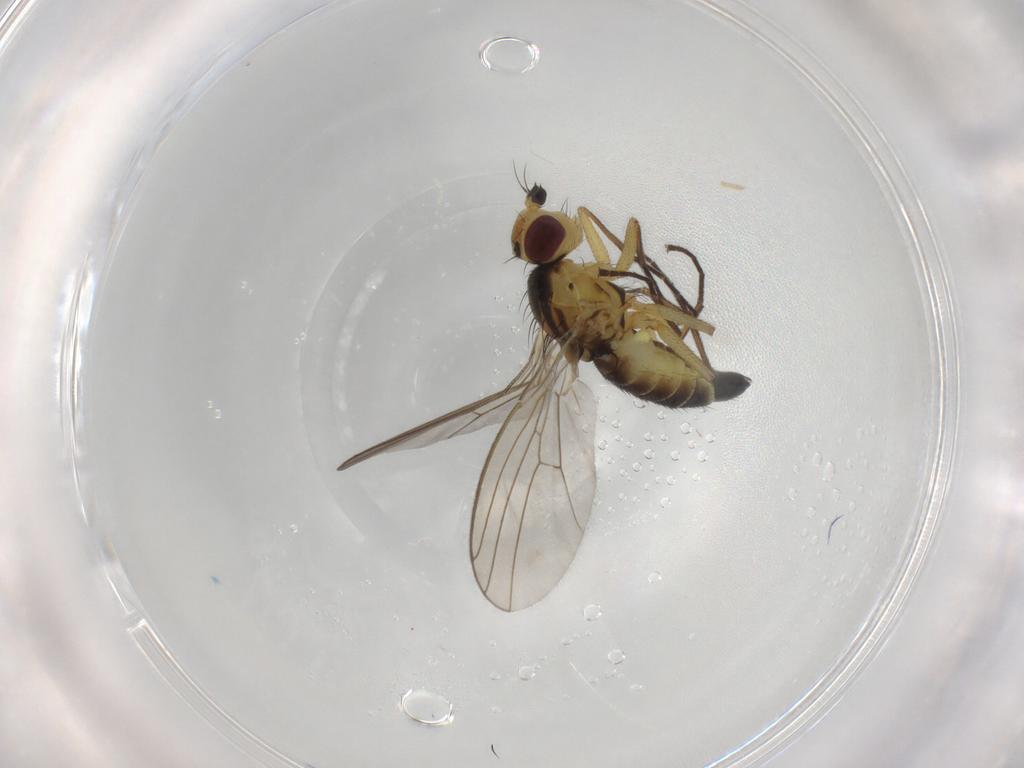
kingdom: Animalia
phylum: Arthropoda
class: Insecta
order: Diptera
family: Agromyzidae
